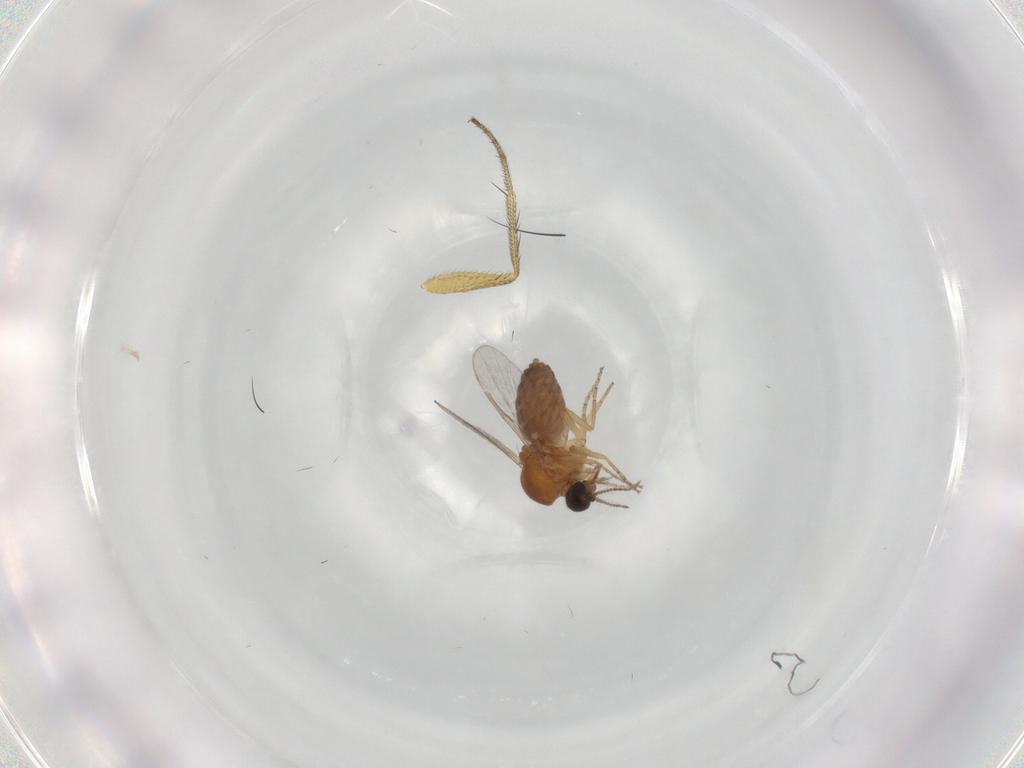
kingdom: Animalia
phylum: Arthropoda
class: Insecta
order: Diptera
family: Ceratopogonidae
